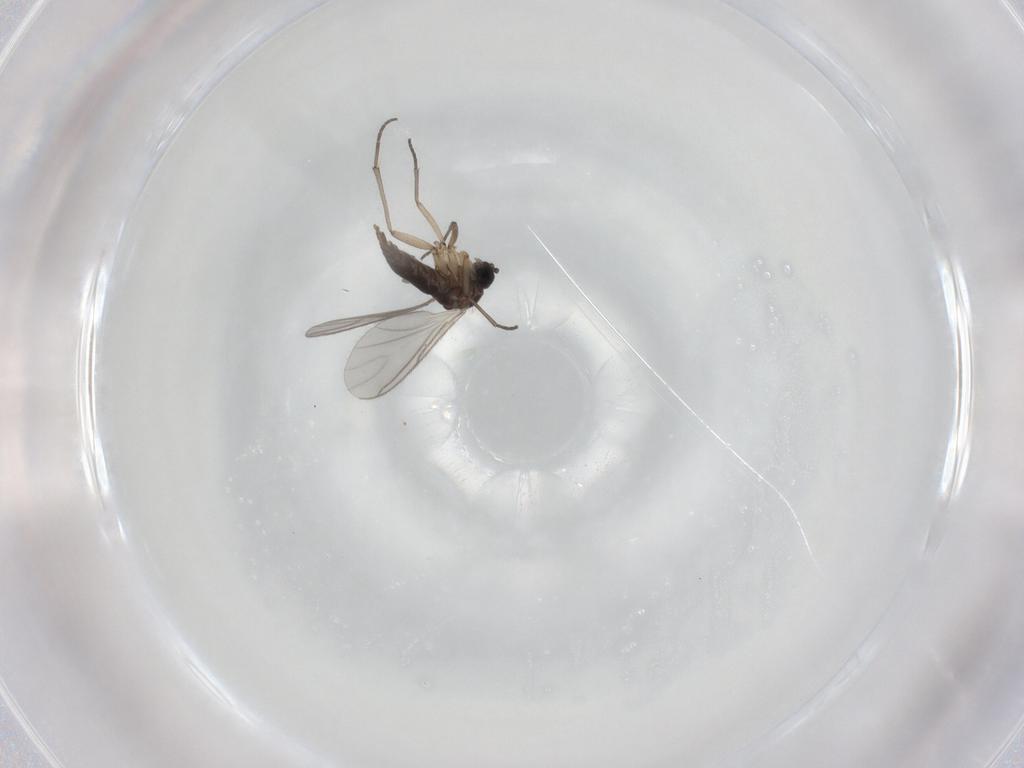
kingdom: Animalia
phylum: Arthropoda
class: Insecta
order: Diptera
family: Sciaridae
